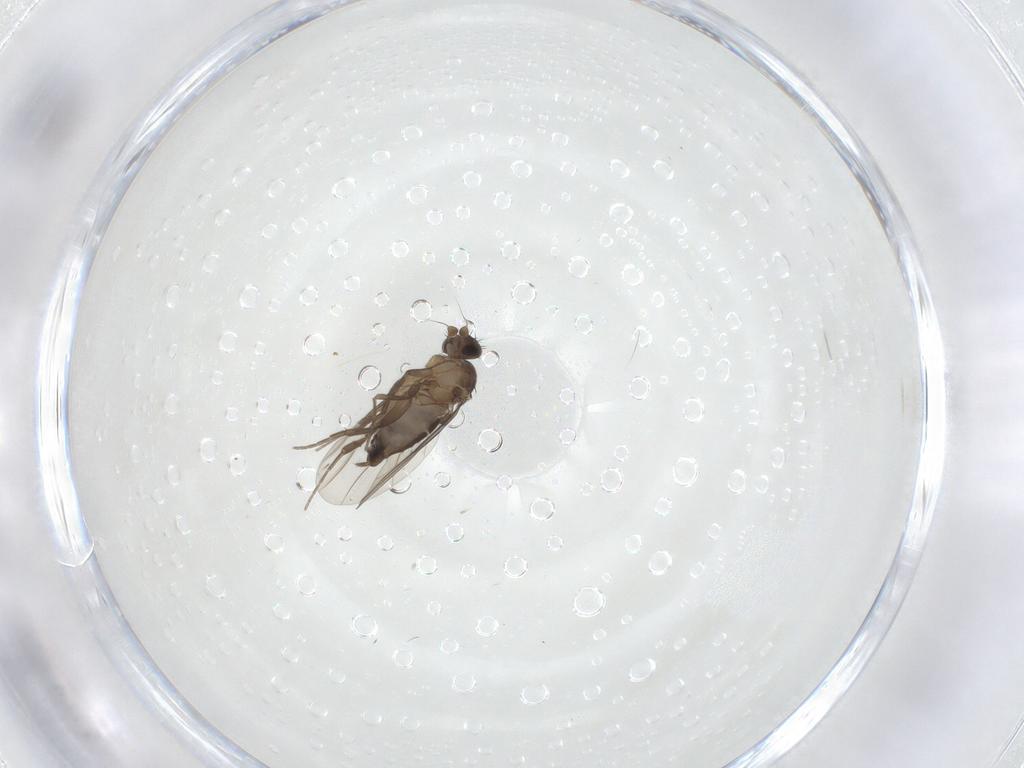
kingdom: Animalia
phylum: Arthropoda
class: Insecta
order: Diptera
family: Phoridae
